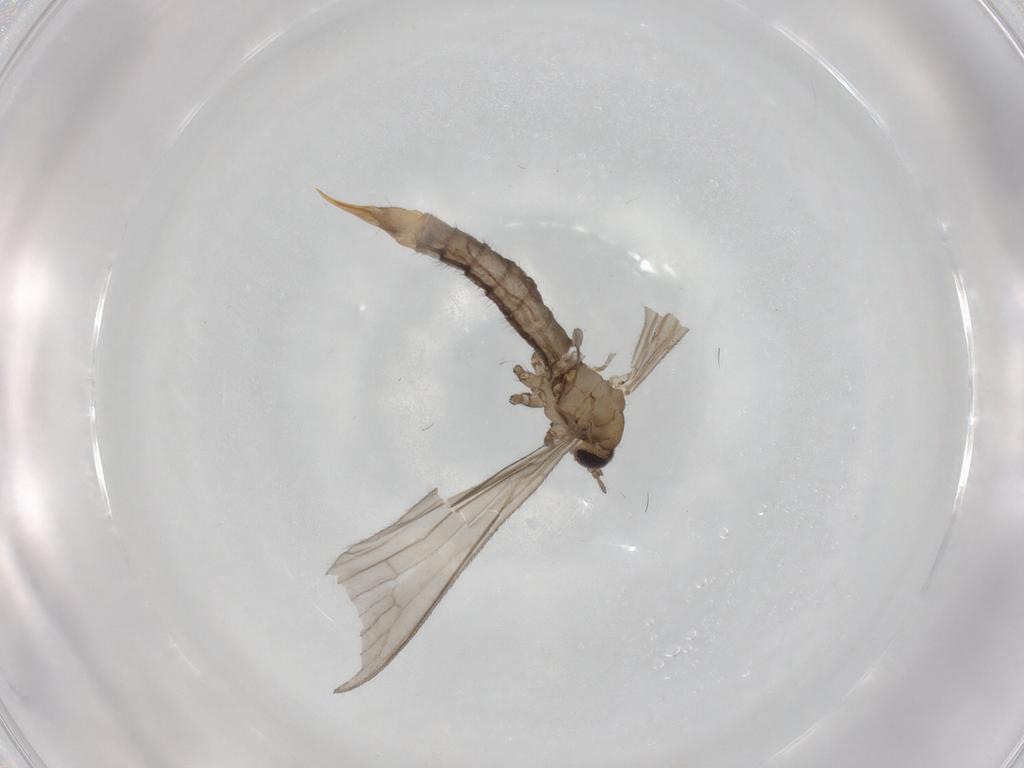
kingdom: Animalia
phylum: Arthropoda
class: Insecta
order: Diptera
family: Limoniidae
